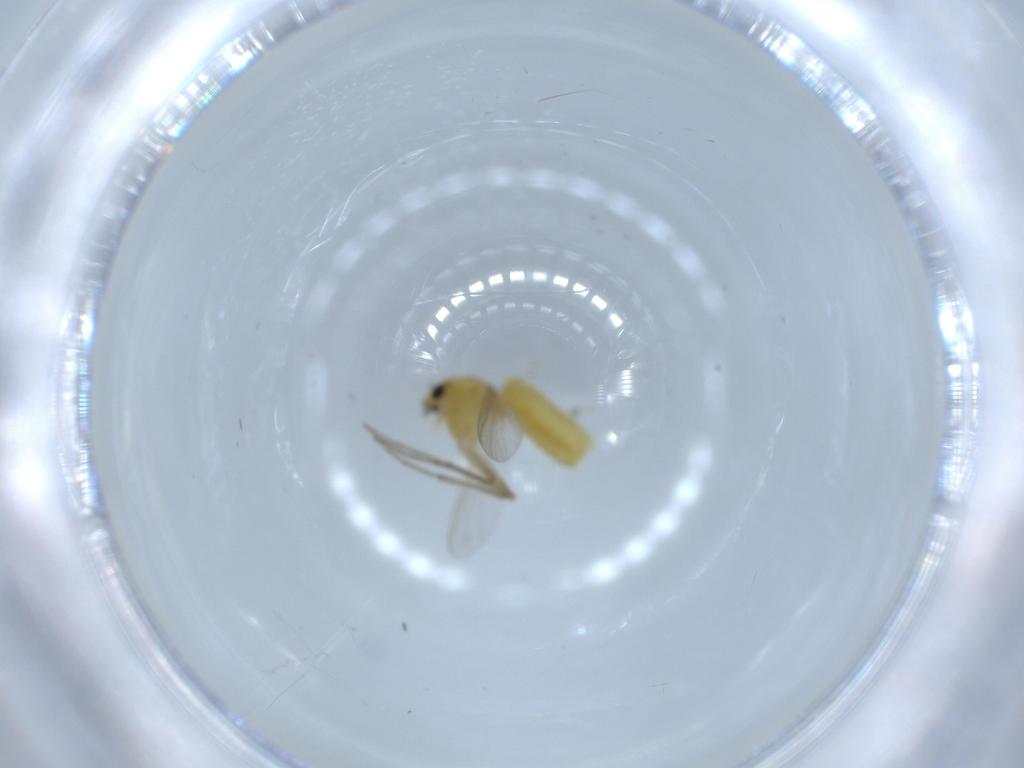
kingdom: Animalia
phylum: Arthropoda
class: Insecta
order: Diptera
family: Chironomidae
